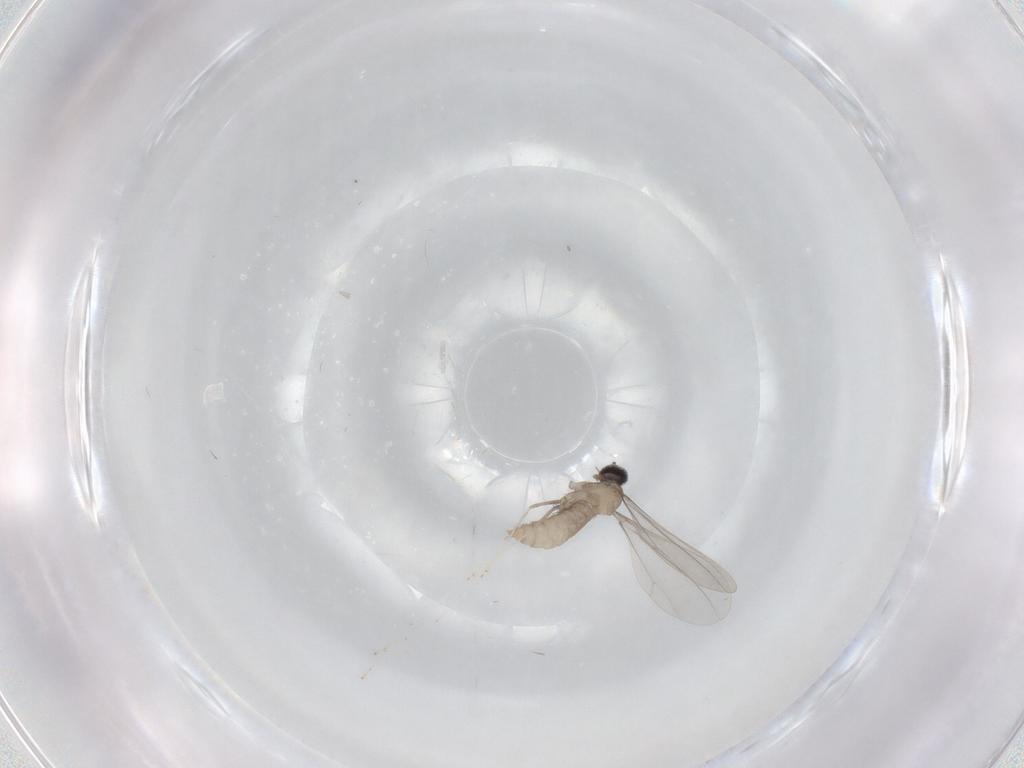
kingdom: Animalia
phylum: Arthropoda
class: Insecta
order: Diptera
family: Cecidomyiidae
